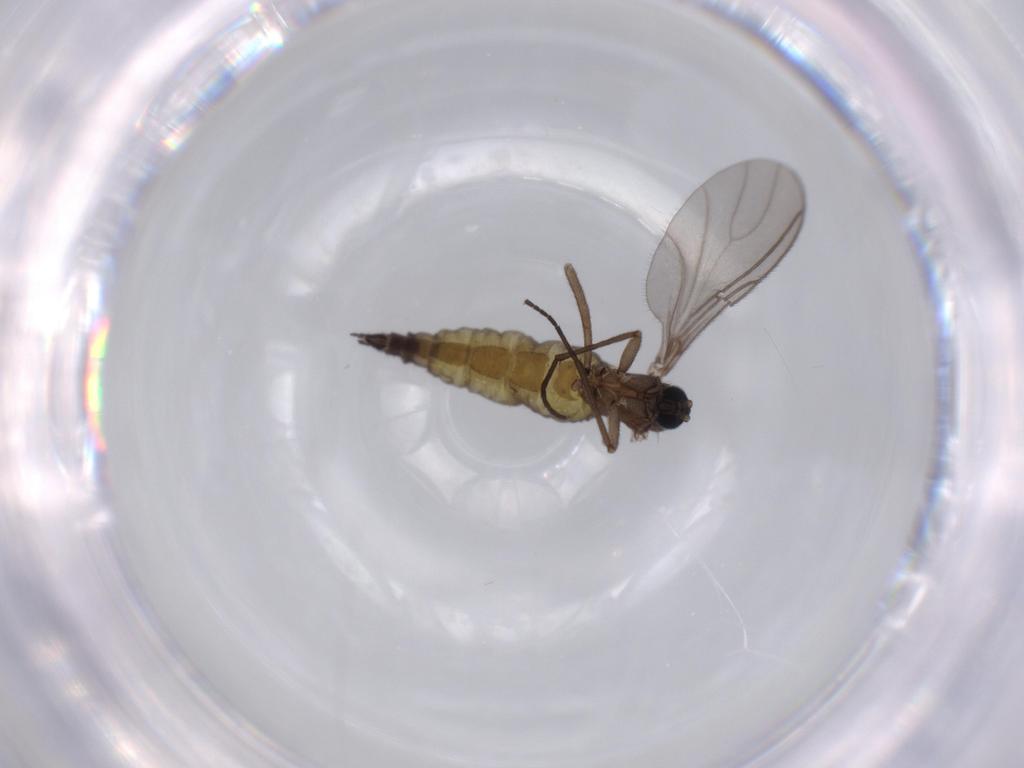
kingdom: Animalia
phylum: Arthropoda
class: Insecta
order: Diptera
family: Sciaridae
